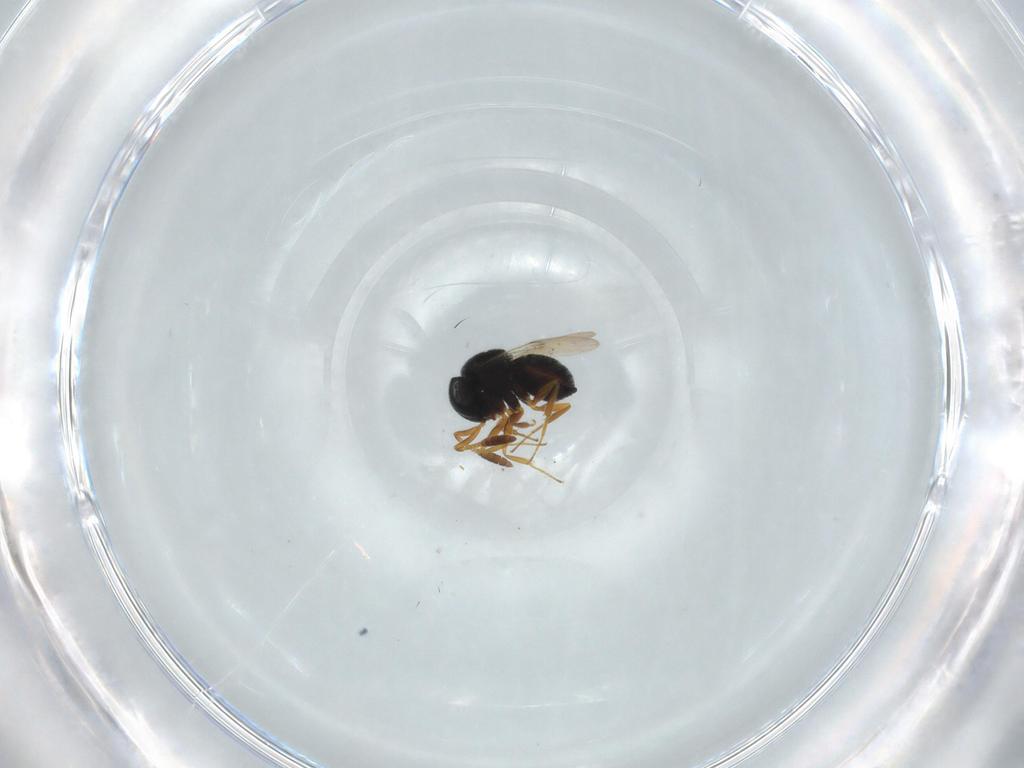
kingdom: Animalia
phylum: Arthropoda
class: Insecta
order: Hymenoptera
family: Scelionidae
